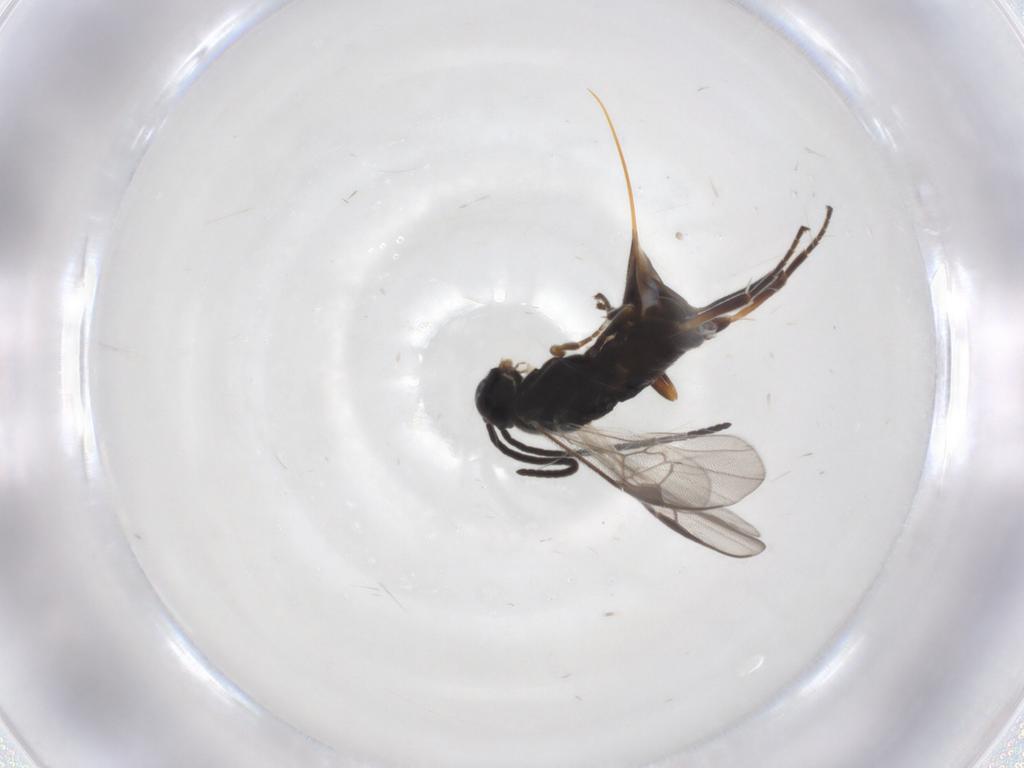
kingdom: Animalia
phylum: Arthropoda
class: Insecta
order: Hymenoptera
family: Braconidae
